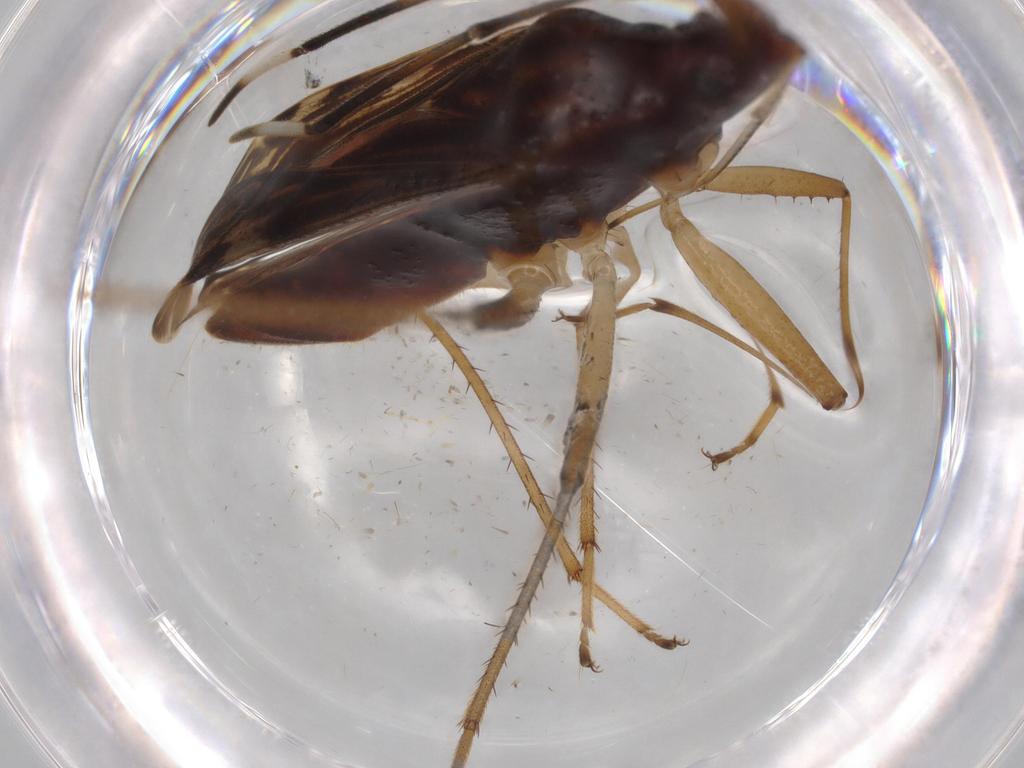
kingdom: Animalia
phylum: Arthropoda
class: Insecta
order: Hemiptera
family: Rhyparochromidae
